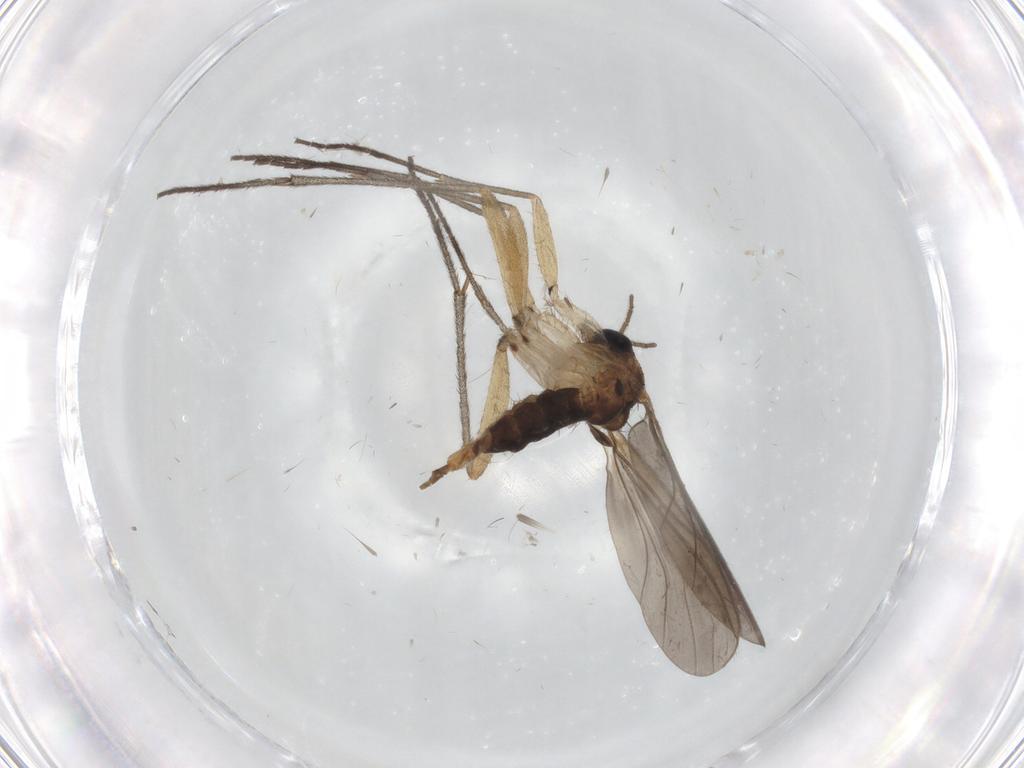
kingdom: Animalia
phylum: Arthropoda
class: Insecta
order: Diptera
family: Sciaridae
